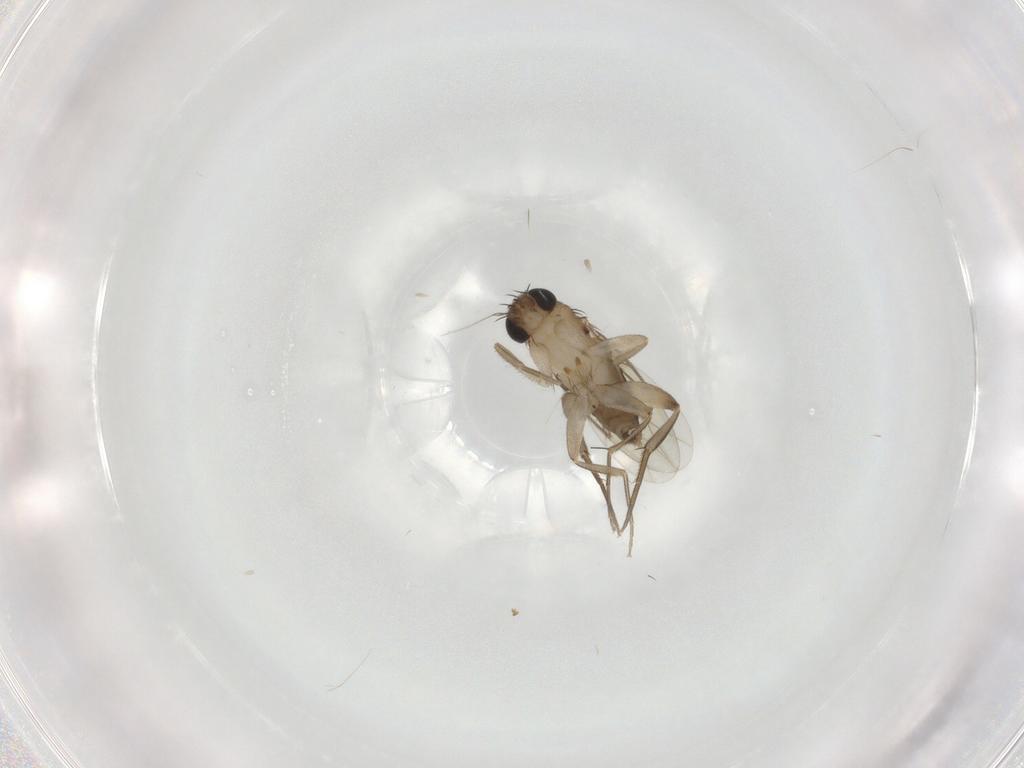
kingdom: Animalia
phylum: Arthropoda
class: Insecta
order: Diptera
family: Phoridae
